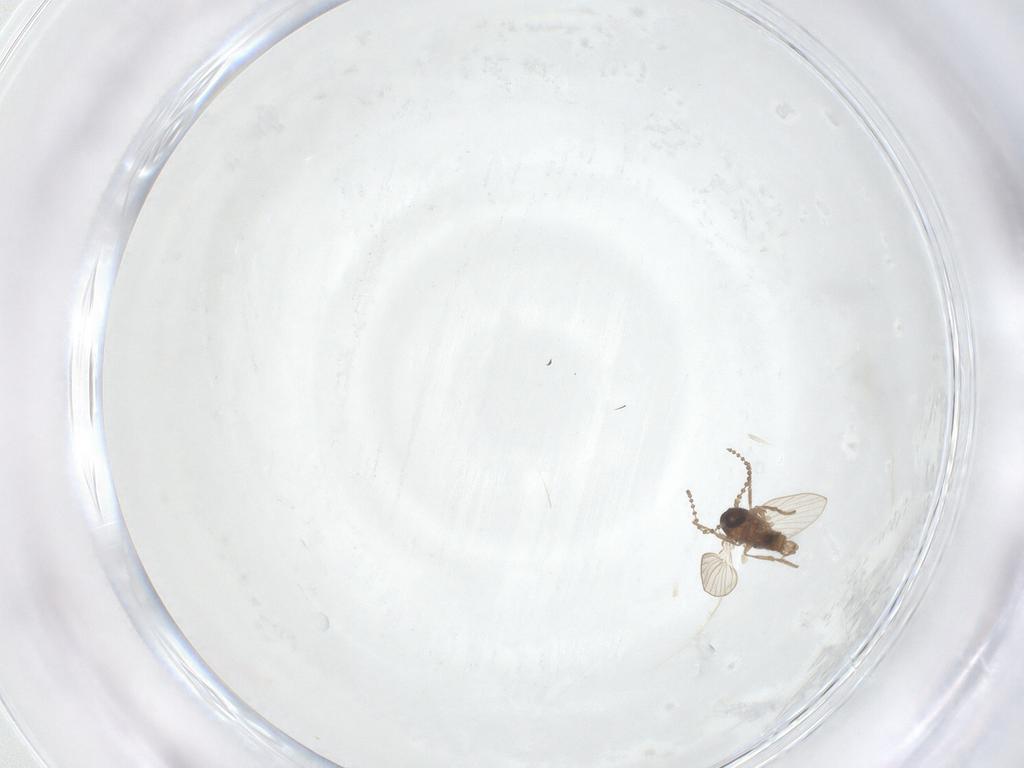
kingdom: Animalia
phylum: Arthropoda
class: Insecta
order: Diptera
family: Psychodidae
